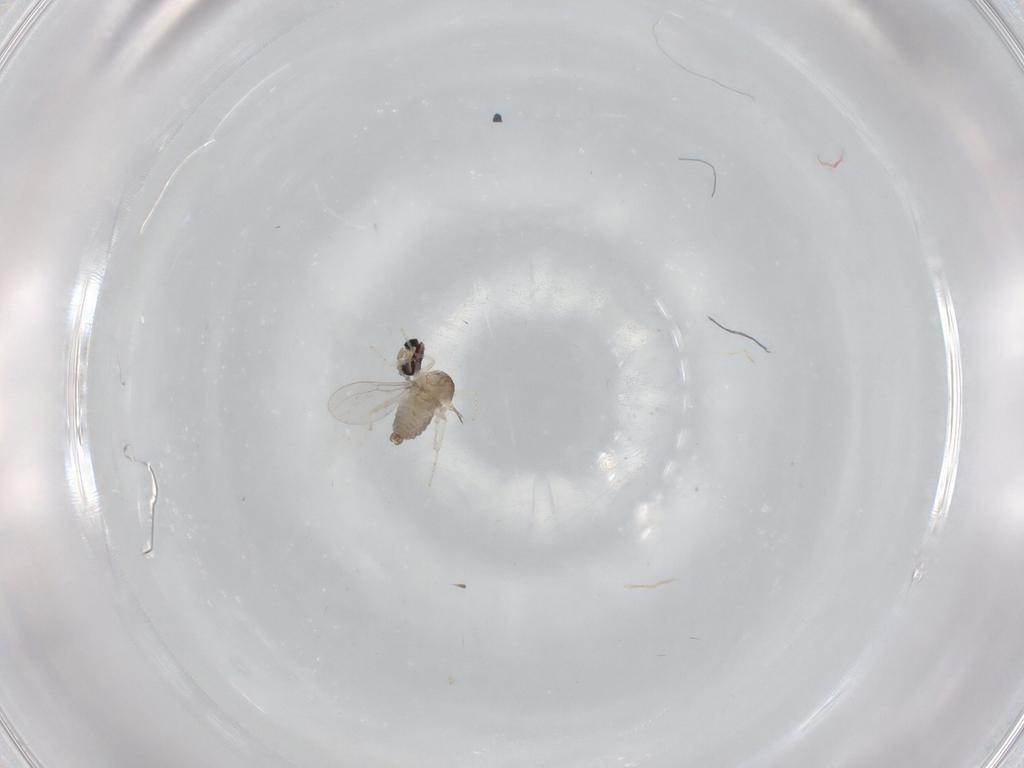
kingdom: Animalia
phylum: Arthropoda
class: Insecta
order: Diptera
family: Cecidomyiidae
